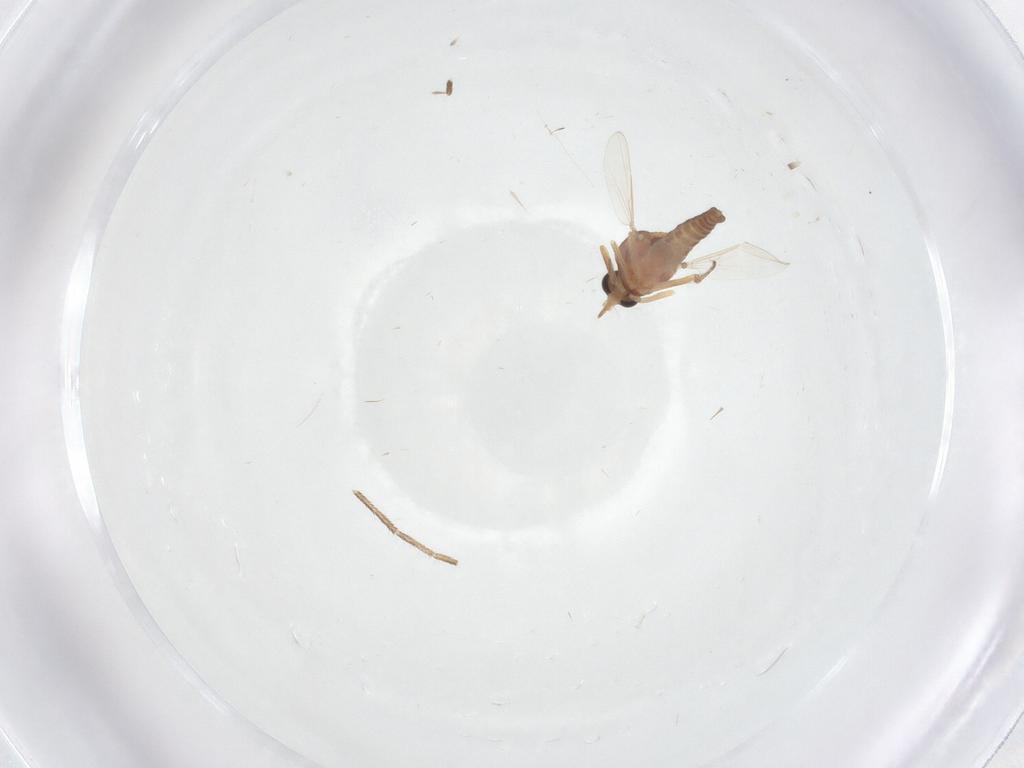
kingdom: Animalia
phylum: Arthropoda
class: Insecta
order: Diptera
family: Cecidomyiidae
